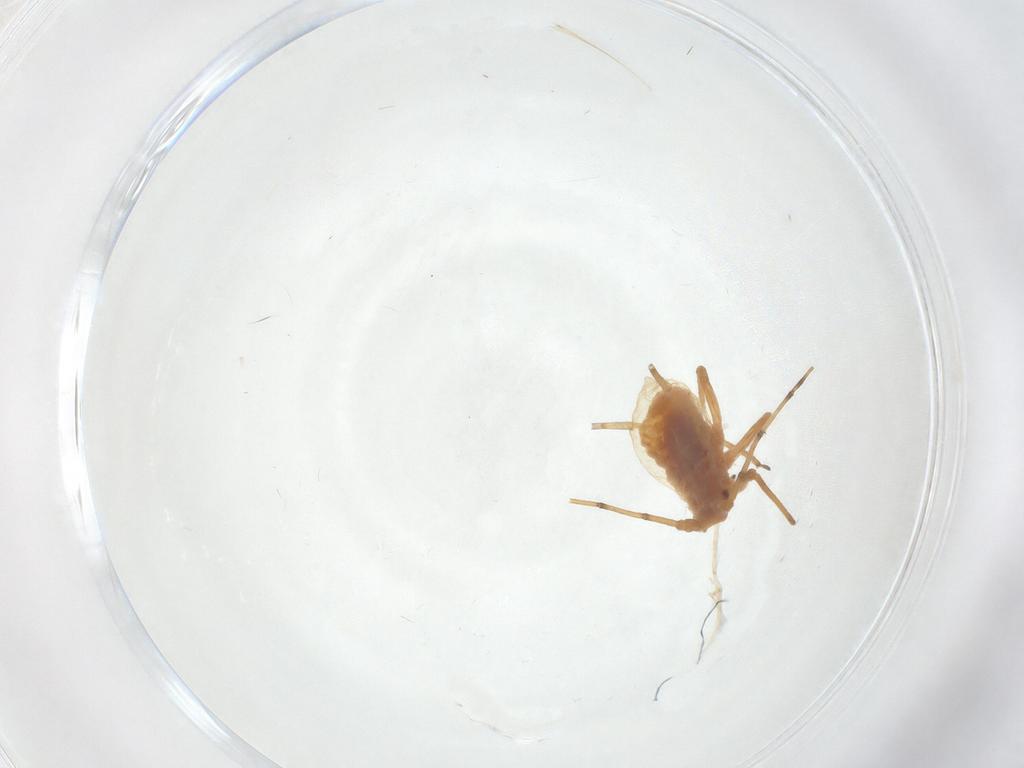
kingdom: Animalia
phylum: Arthropoda
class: Insecta
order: Hemiptera
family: Aphididae
